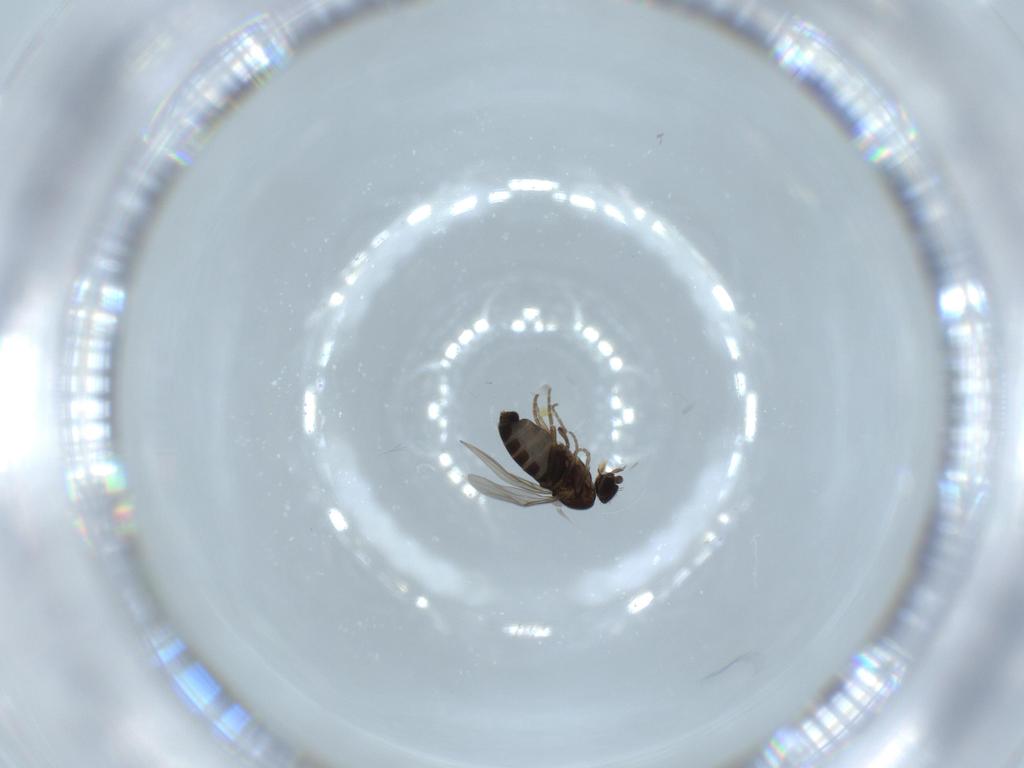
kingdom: Animalia
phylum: Arthropoda
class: Insecta
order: Diptera
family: Phoridae
